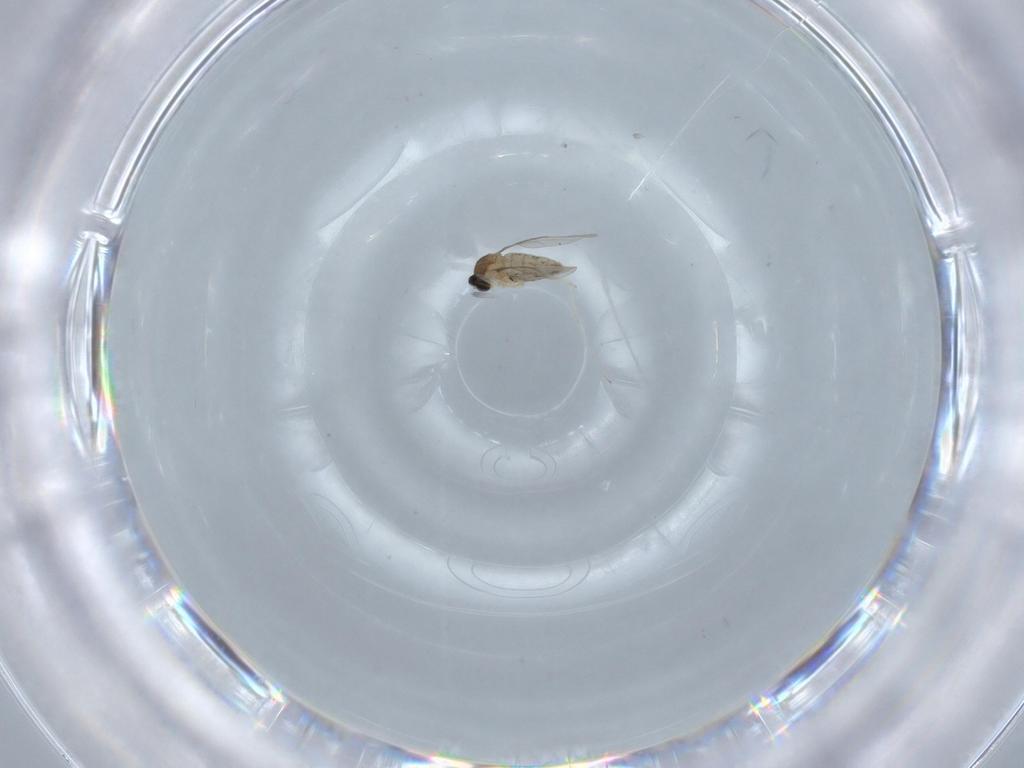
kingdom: Animalia
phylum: Arthropoda
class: Insecta
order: Diptera
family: Cecidomyiidae
